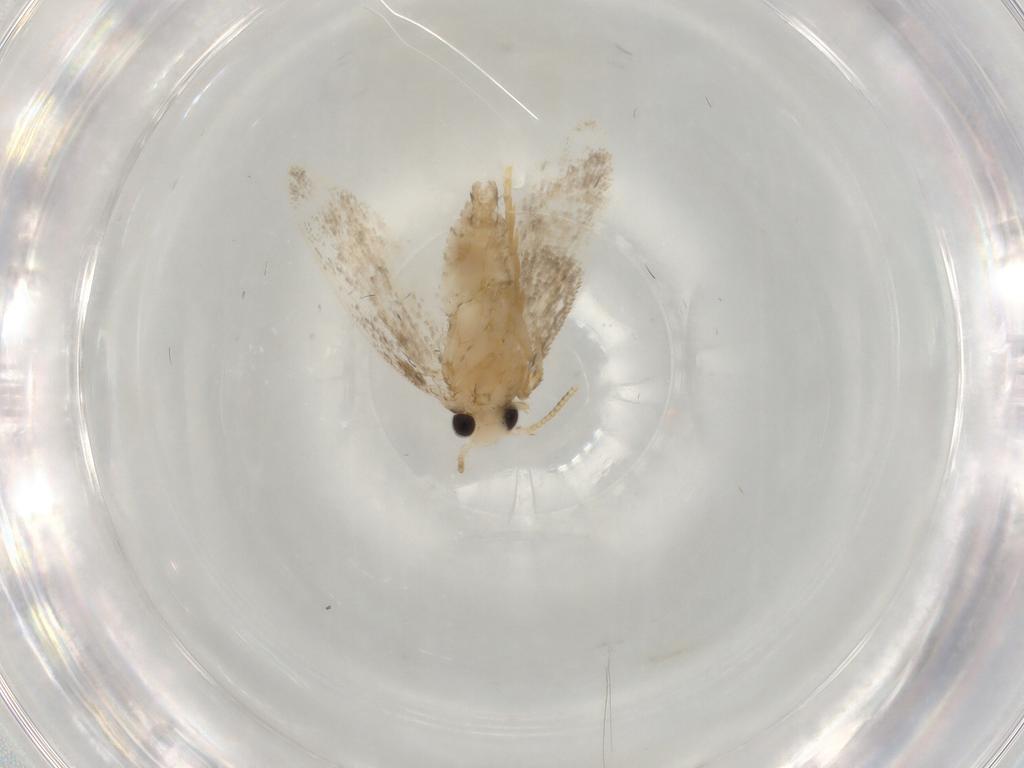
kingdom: Animalia
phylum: Arthropoda
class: Insecta
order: Lepidoptera
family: Psychidae
